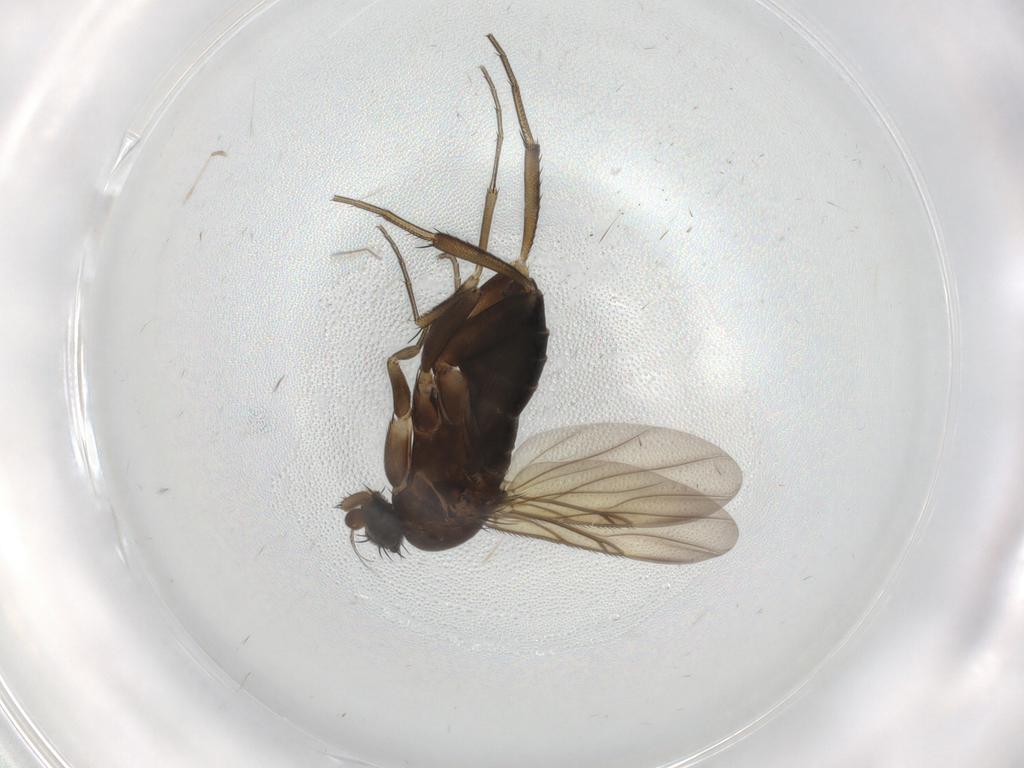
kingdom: Animalia
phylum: Arthropoda
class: Insecta
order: Diptera
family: Phoridae
